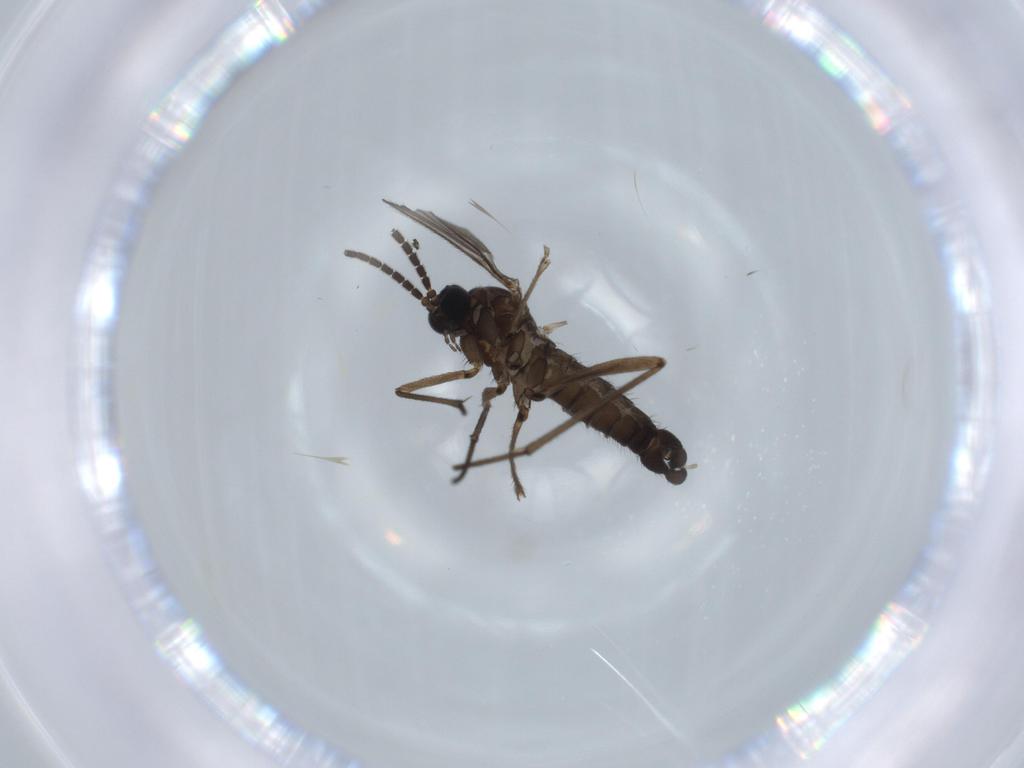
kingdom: Animalia
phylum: Arthropoda
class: Insecta
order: Diptera
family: Sciaridae
